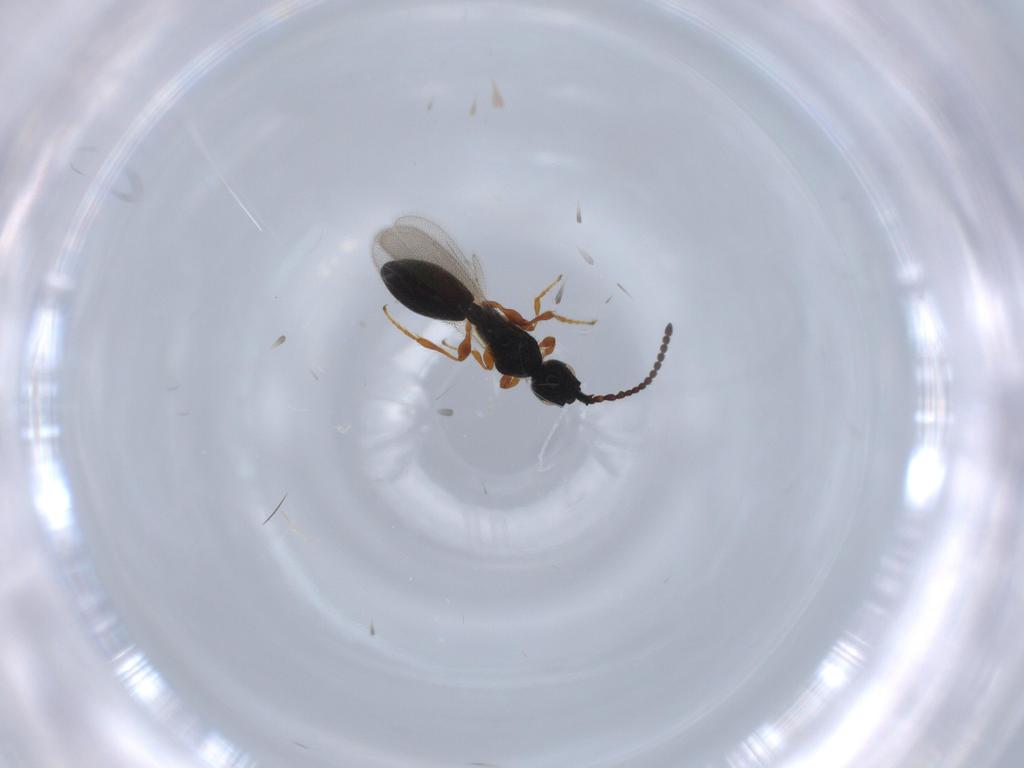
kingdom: Animalia
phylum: Arthropoda
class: Insecta
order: Hymenoptera
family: Diapriidae
